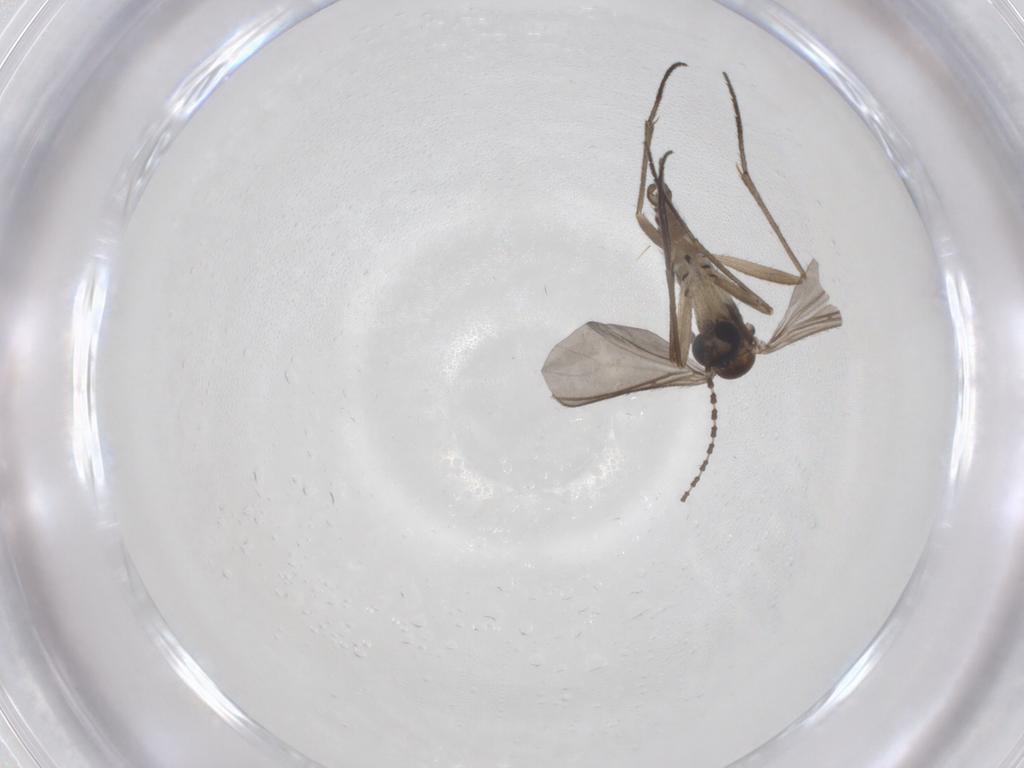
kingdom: Animalia
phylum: Arthropoda
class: Insecta
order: Diptera
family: Sciaridae
